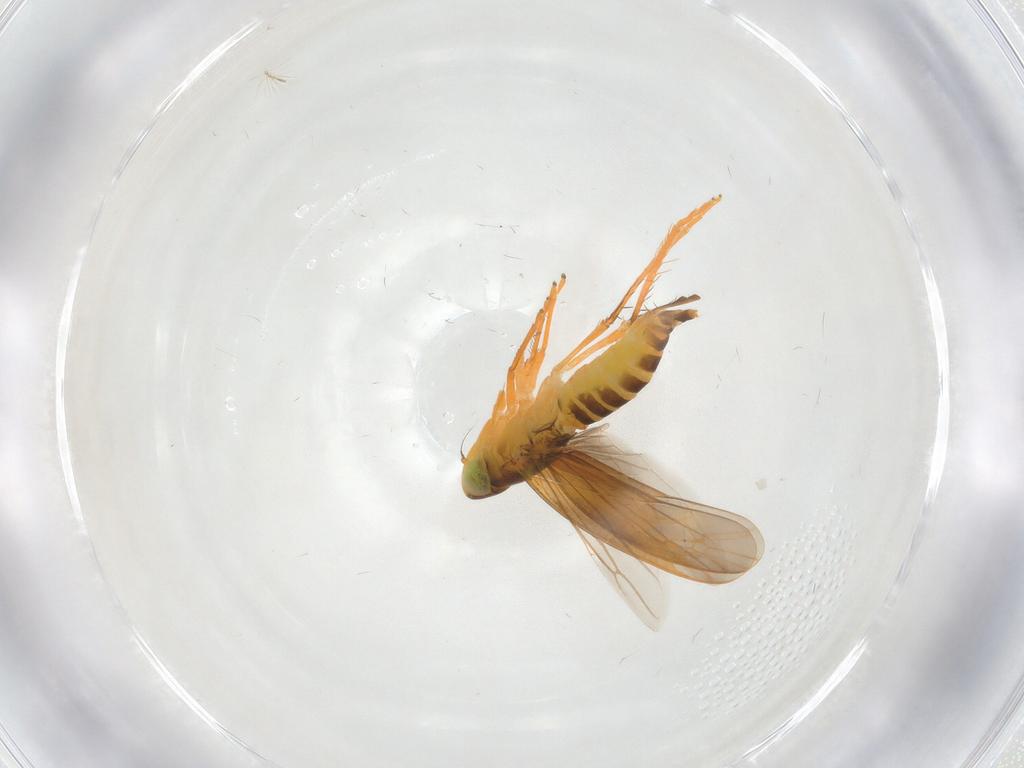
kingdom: Animalia
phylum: Arthropoda
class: Insecta
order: Hemiptera
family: Cicadellidae
